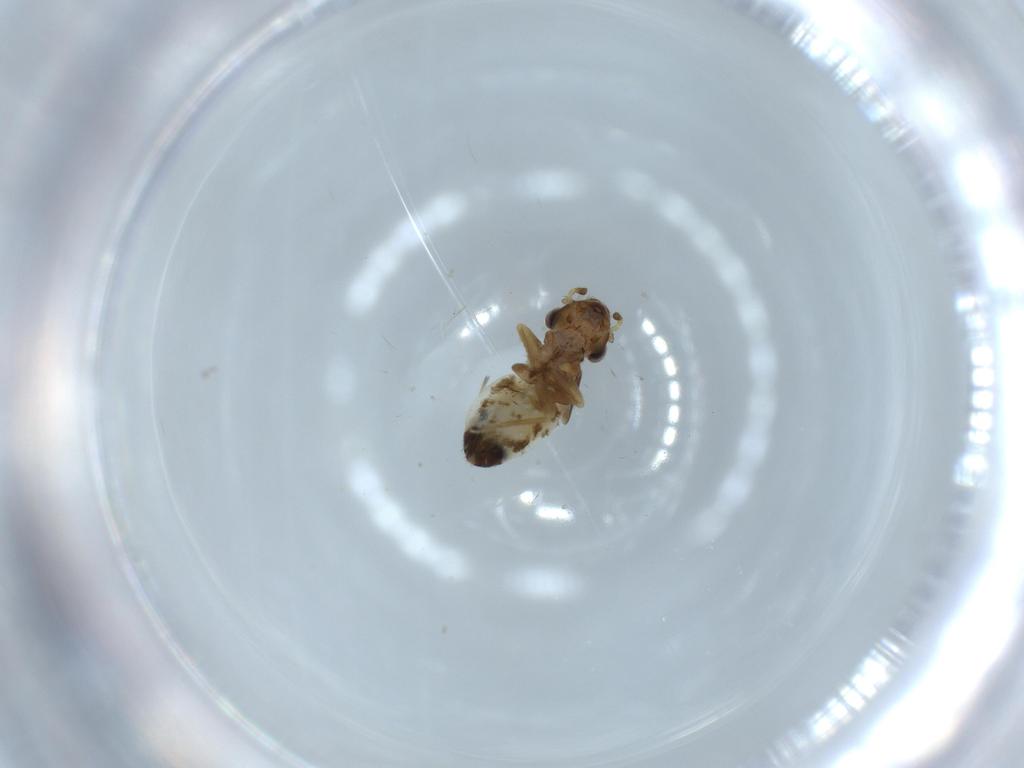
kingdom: Animalia
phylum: Arthropoda
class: Insecta
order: Psocodea
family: Lepidopsocidae
